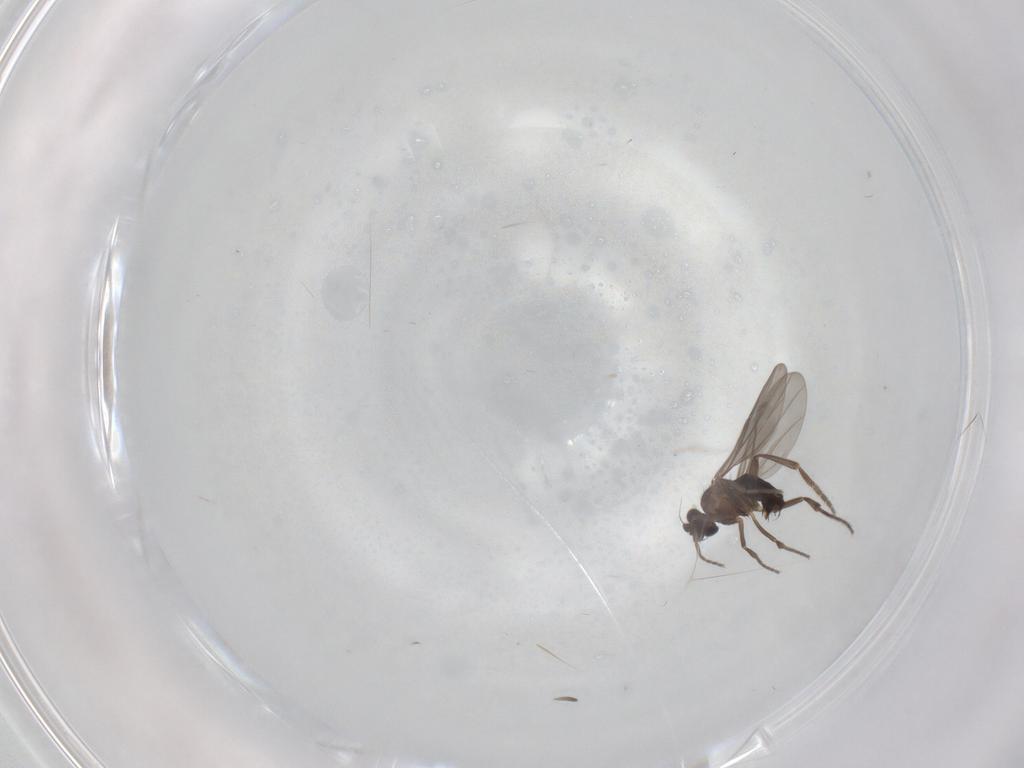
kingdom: Animalia
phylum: Arthropoda
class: Insecta
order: Diptera
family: Phoridae
